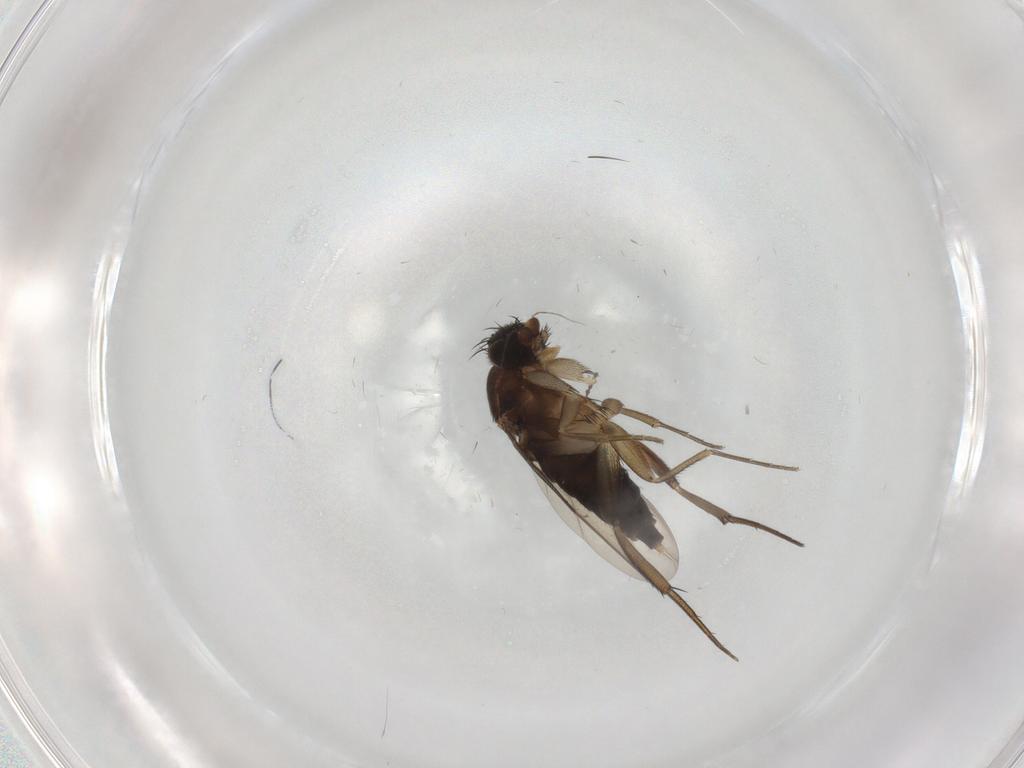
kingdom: Animalia
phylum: Arthropoda
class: Insecta
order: Diptera
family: Phoridae
